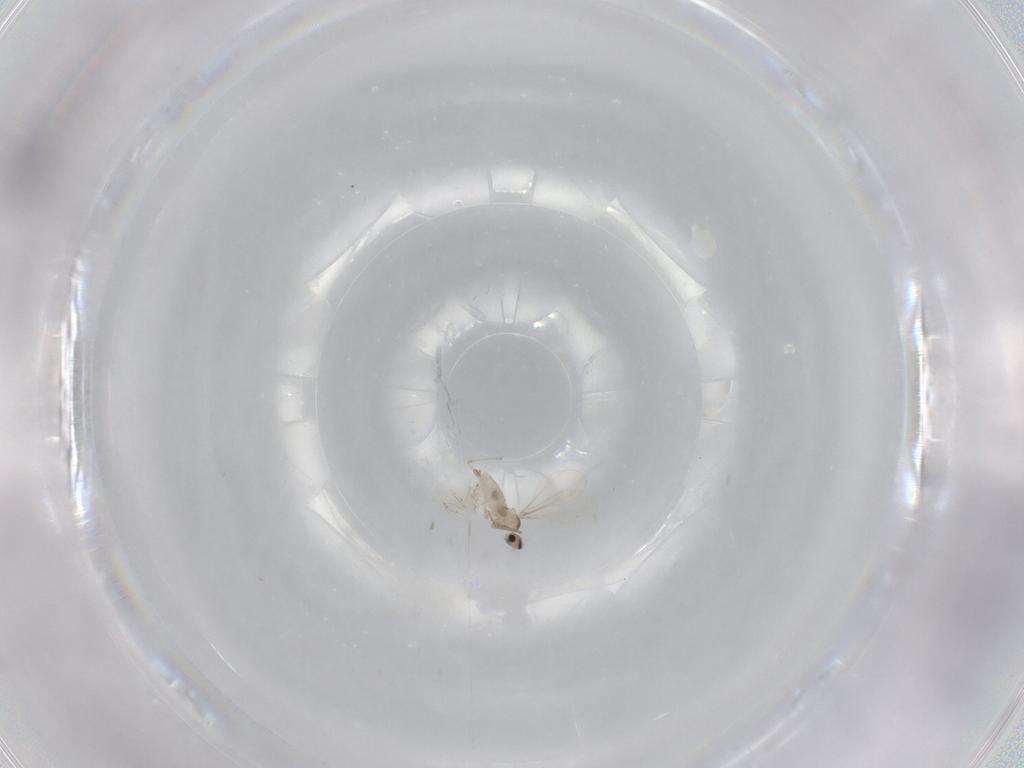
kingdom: Animalia
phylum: Arthropoda
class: Insecta
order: Diptera
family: Cecidomyiidae
